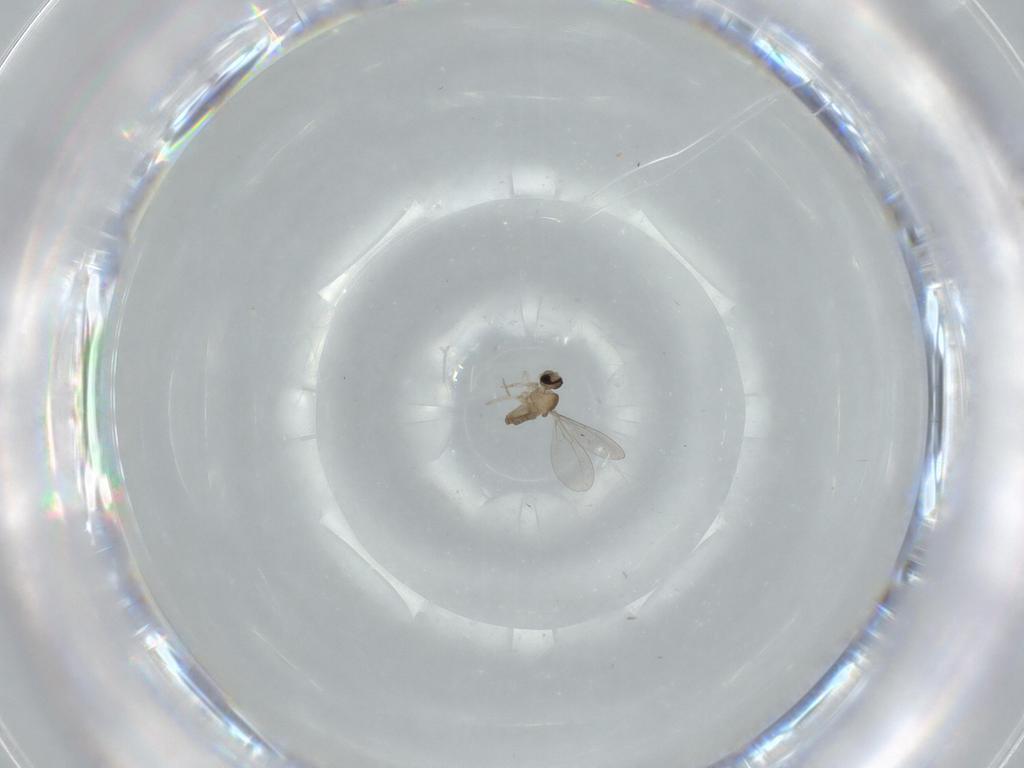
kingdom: Animalia
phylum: Arthropoda
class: Insecta
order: Diptera
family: Cecidomyiidae
